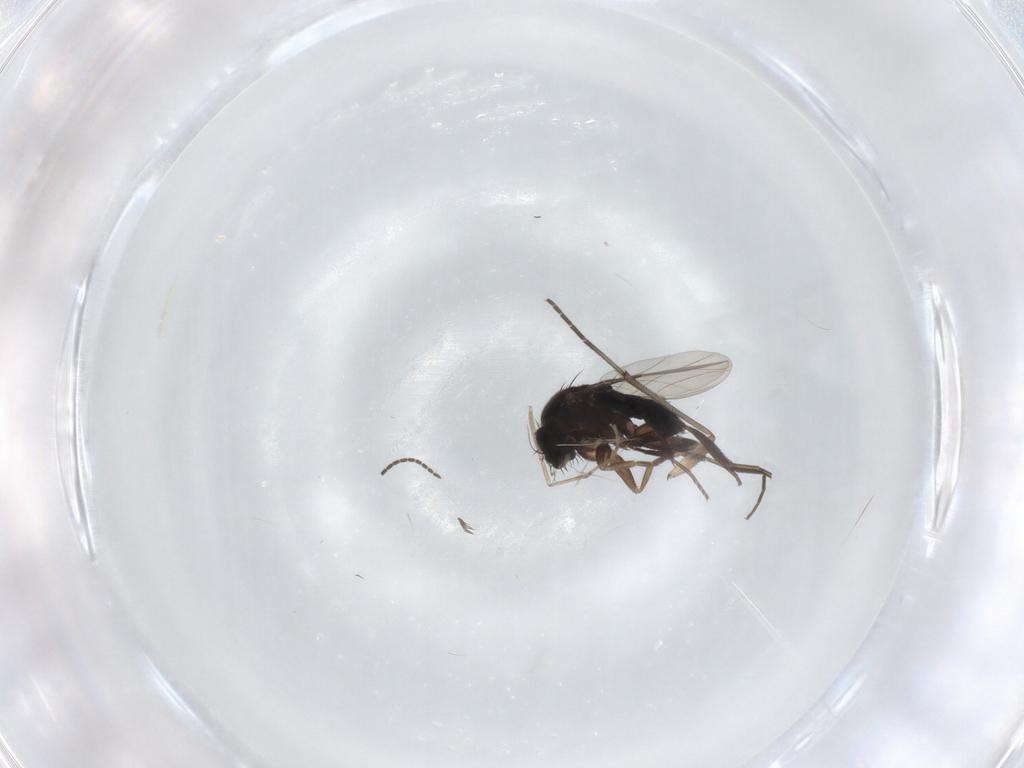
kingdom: Animalia
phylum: Arthropoda
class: Insecta
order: Diptera
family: Phoridae
